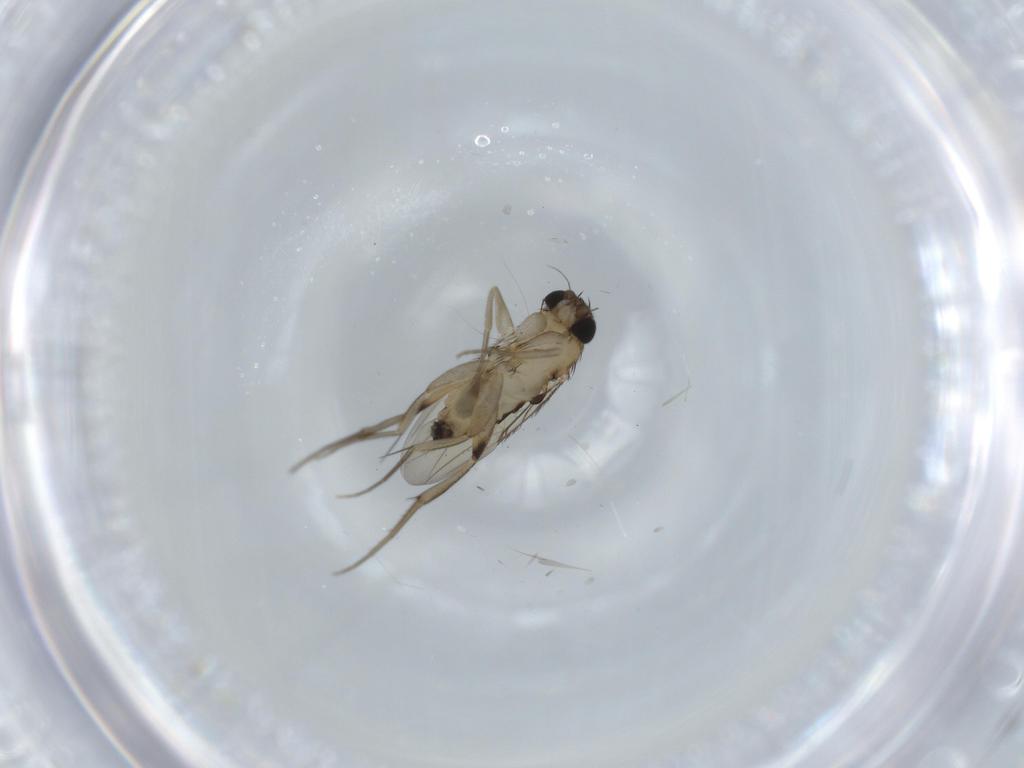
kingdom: Animalia
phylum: Arthropoda
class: Insecta
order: Diptera
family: Phoridae
